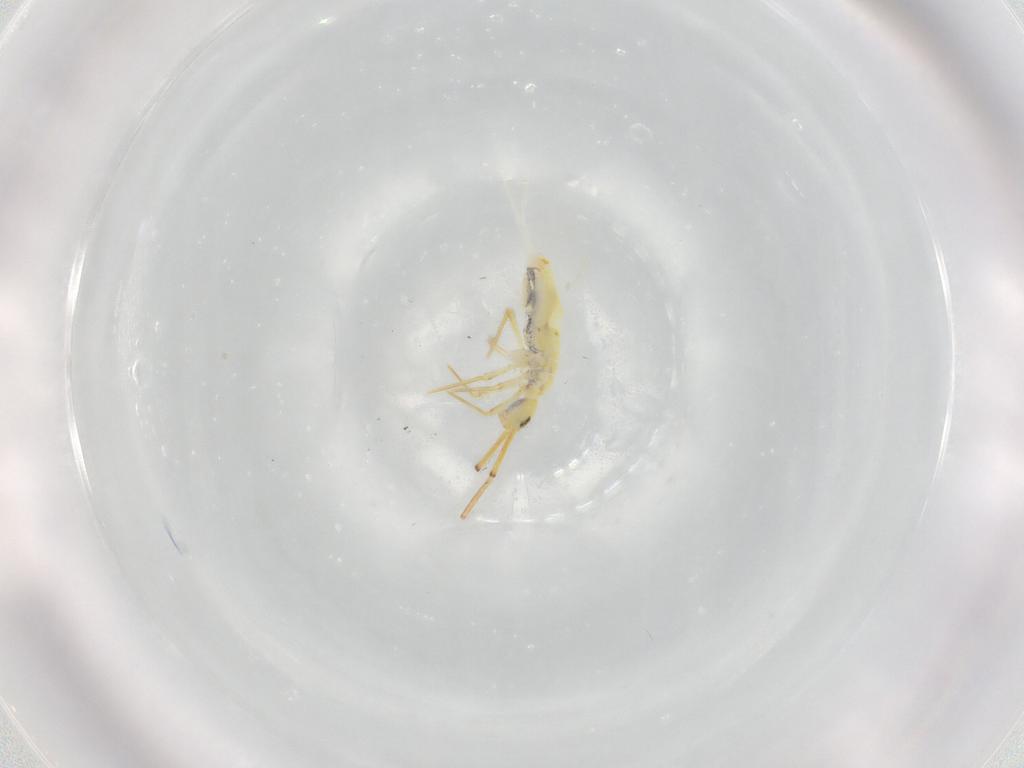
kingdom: Animalia
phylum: Arthropoda
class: Collembola
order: Entomobryomorpha
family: Entomobryidae
